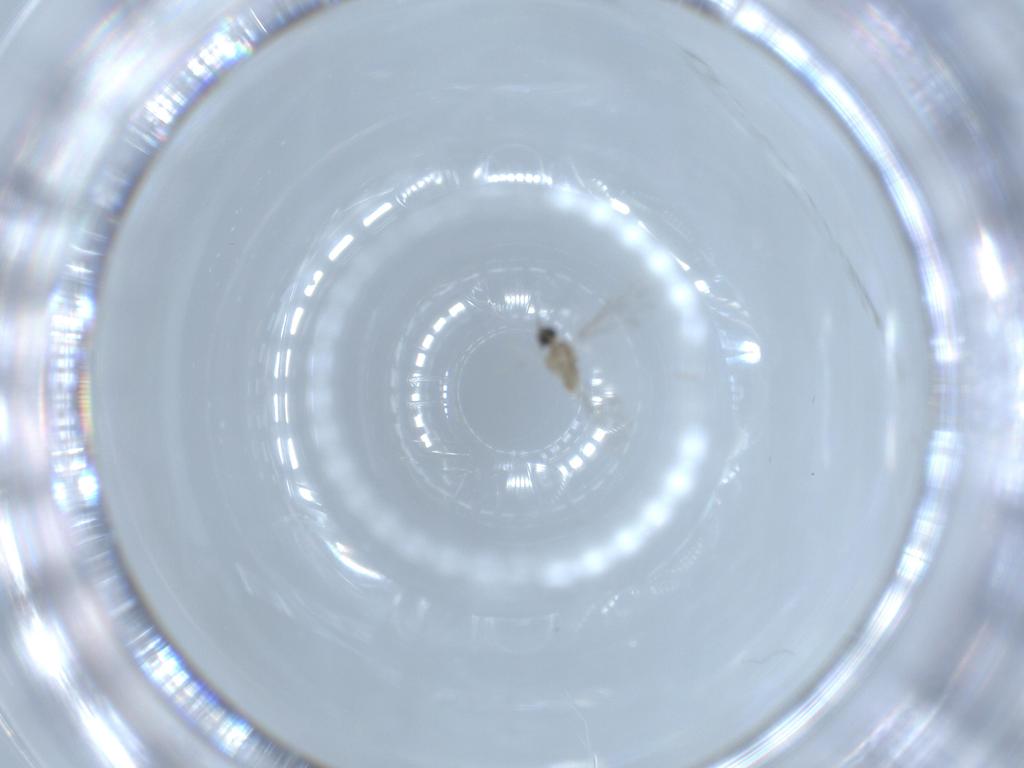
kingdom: Animalia
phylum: Arthropoda
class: Insecta
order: Diptera
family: Cecidomyiidae
